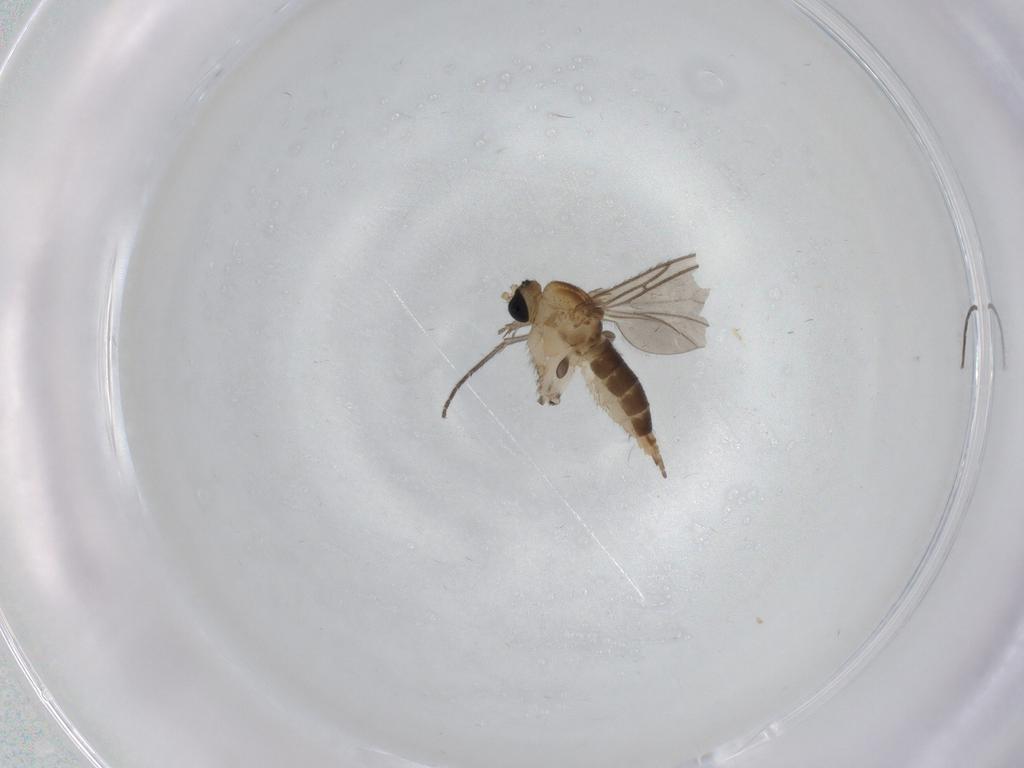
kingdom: Animalia
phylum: Arthropoda
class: Insecta
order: Diptera
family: Sciaridae
